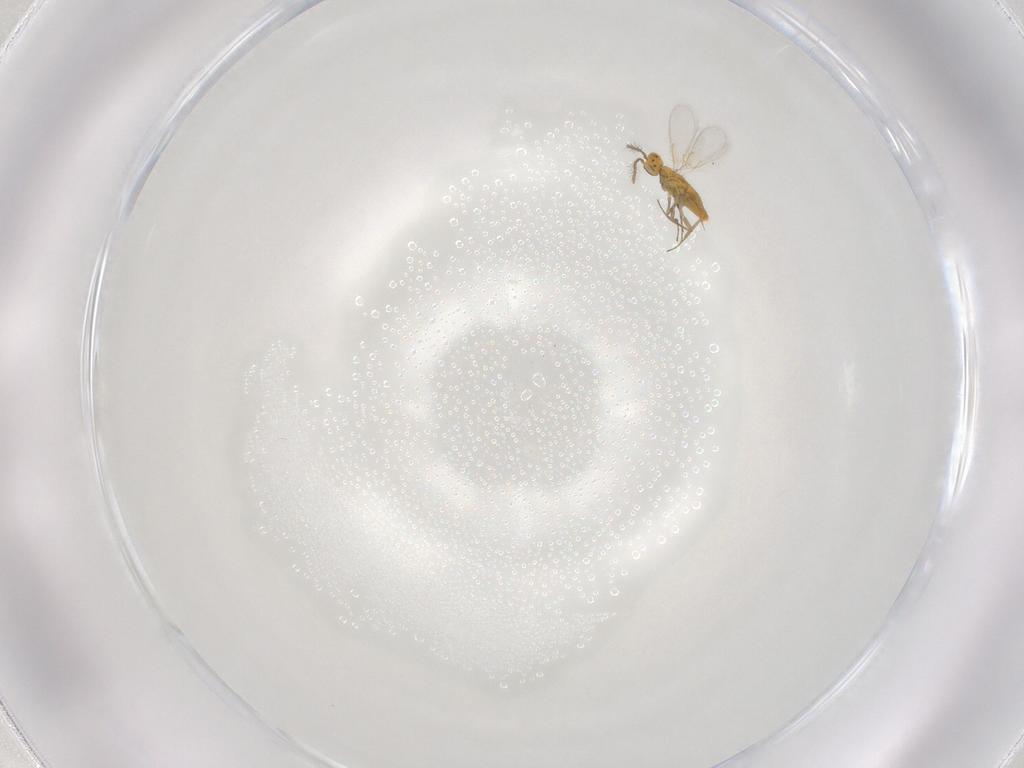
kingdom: Animalia
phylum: Arthropoda
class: Insecta
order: Hymenoptera
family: Aphelinidae
